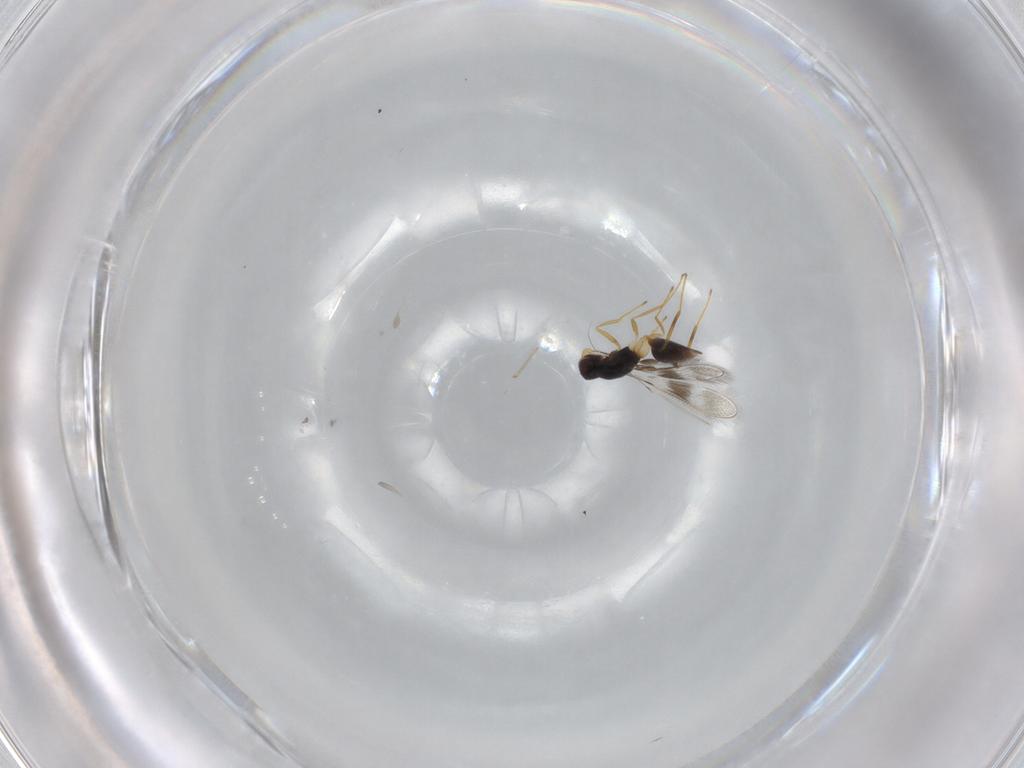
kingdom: Animalia
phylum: Arthropoda
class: Insecta
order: Hymenoptera
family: Mymaridae
